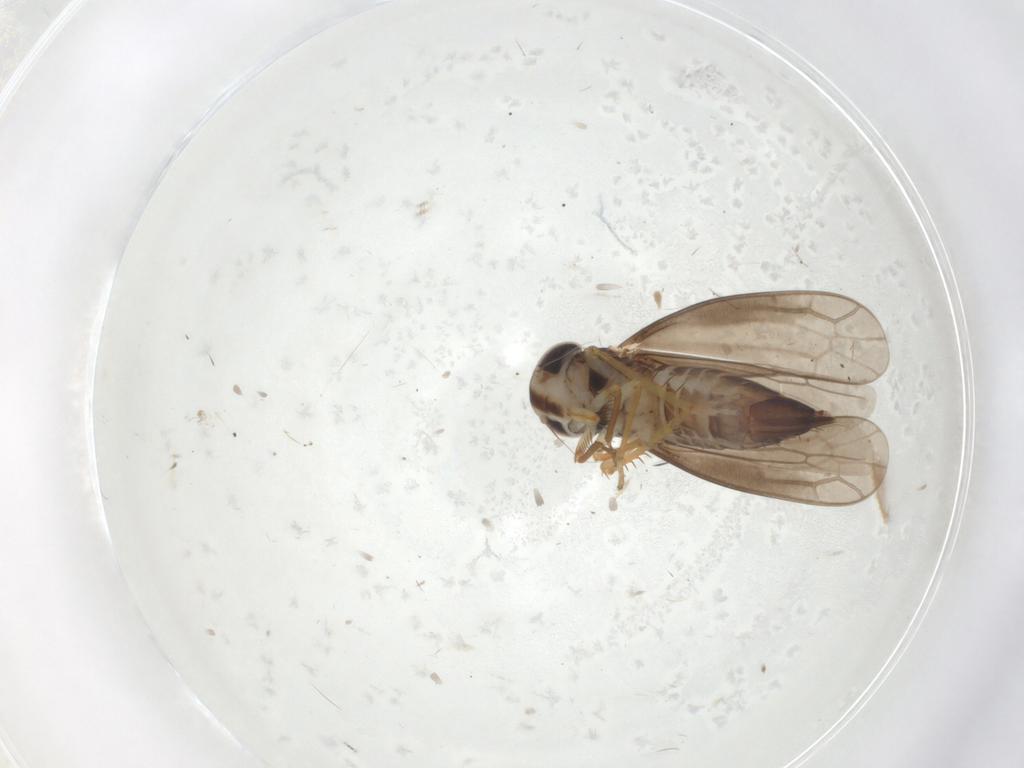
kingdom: Animalia
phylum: Arthropoda
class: Insecta
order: Hemiptera
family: Cicadellidae
